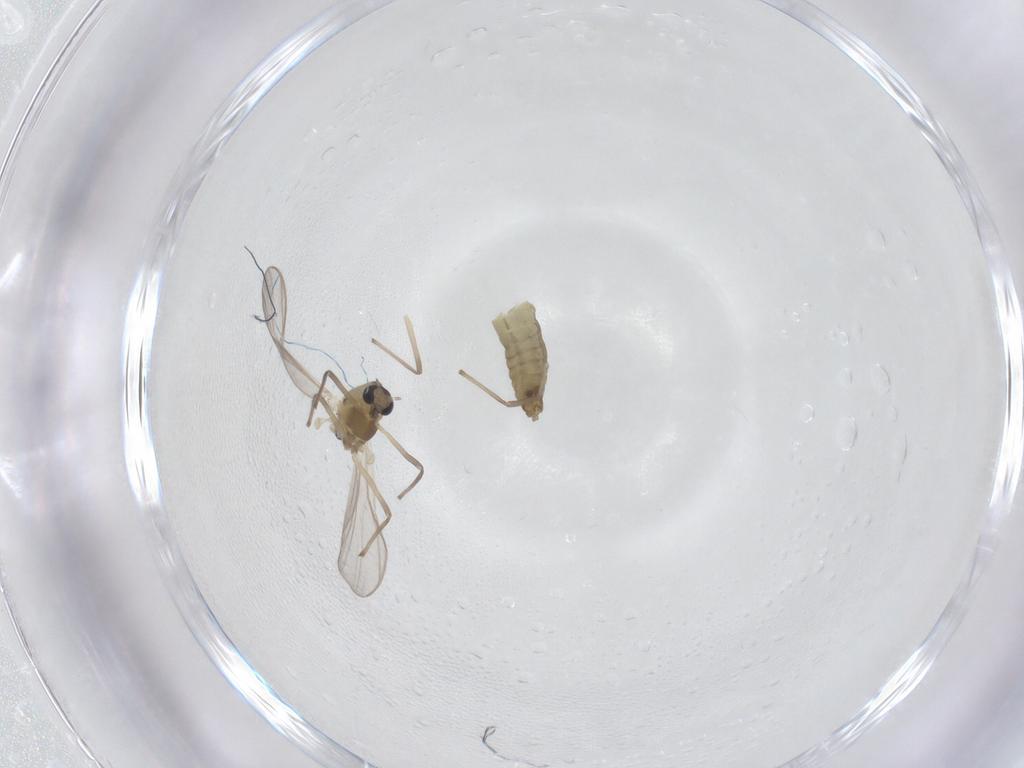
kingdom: Animalia
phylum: Arthropoda
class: Insecta
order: Diptera
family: Chironomidae
